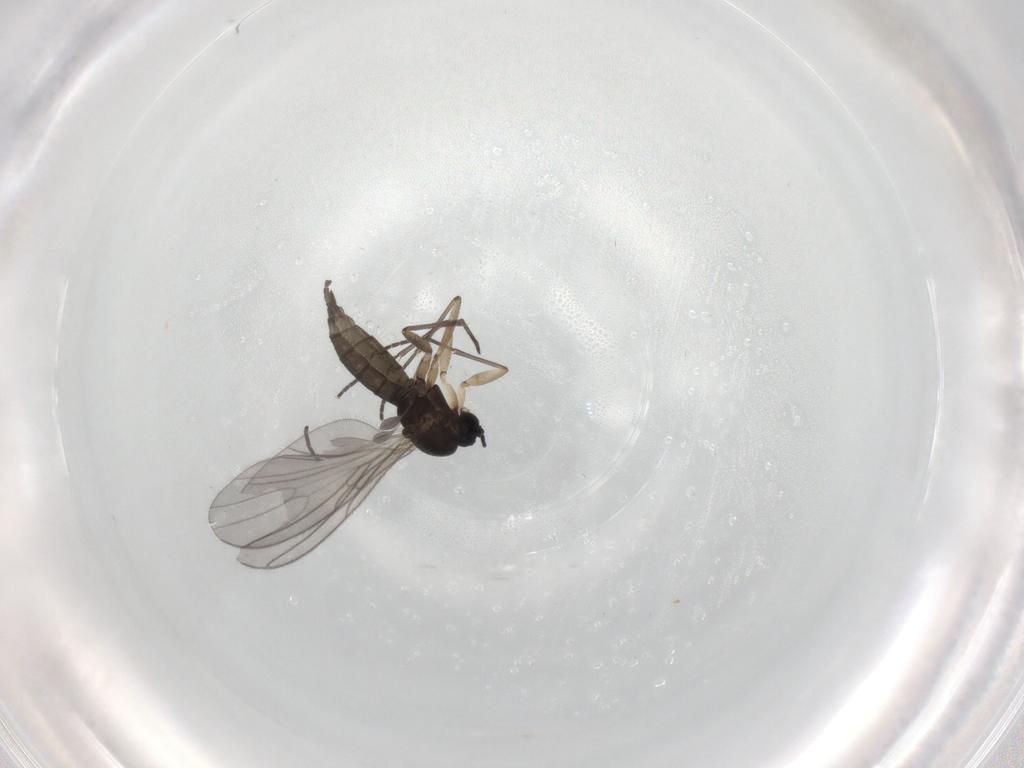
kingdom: Animalia
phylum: Arthropoda
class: Insecta
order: Diptera
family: Sciaridae
